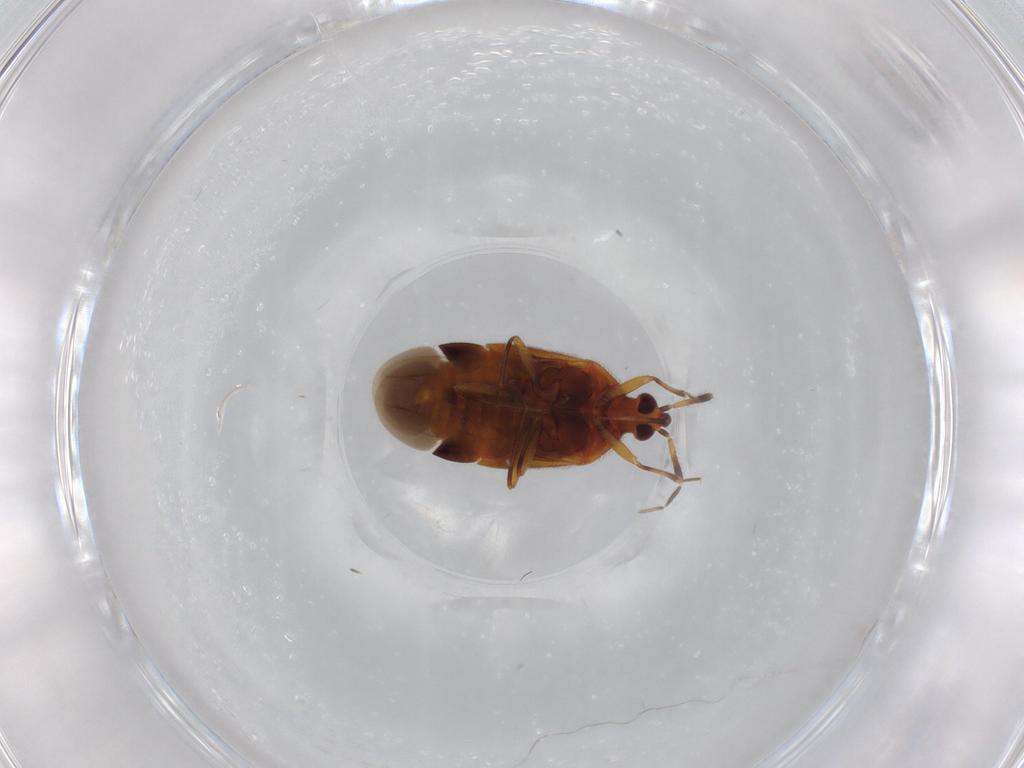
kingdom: Animalia
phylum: Arthropoda
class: Insecta
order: Hemiptera
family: Anthocoridae
